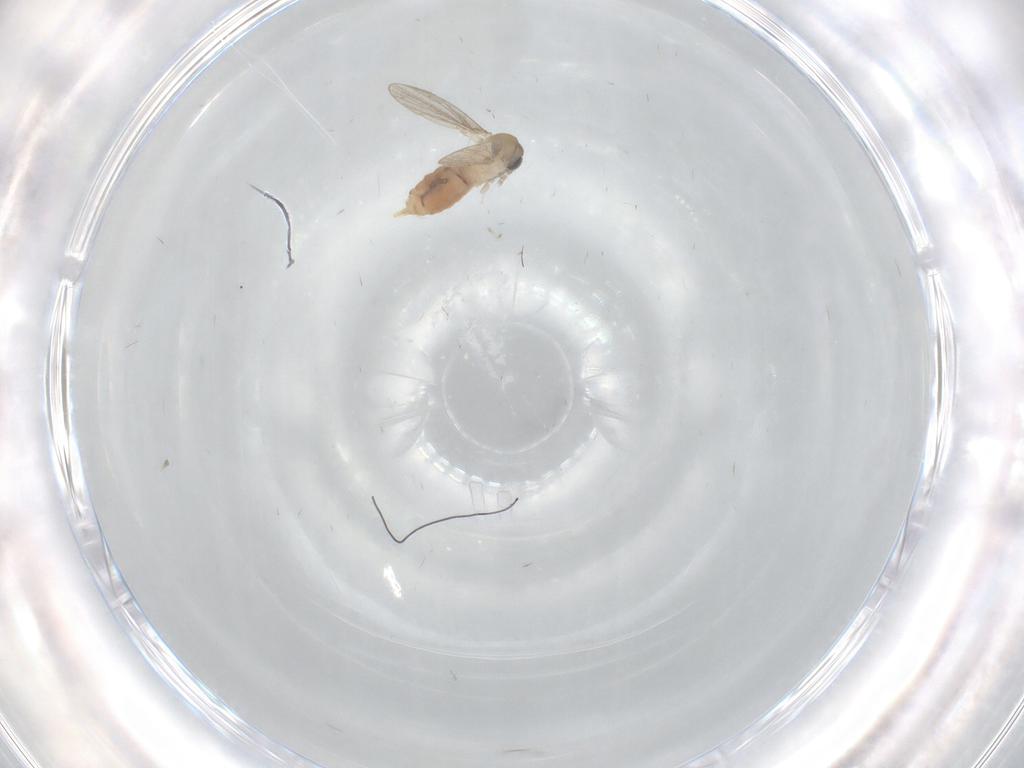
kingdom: Animalia
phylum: Arthropoda
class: Insecta
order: Diptera
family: Psychodidae
